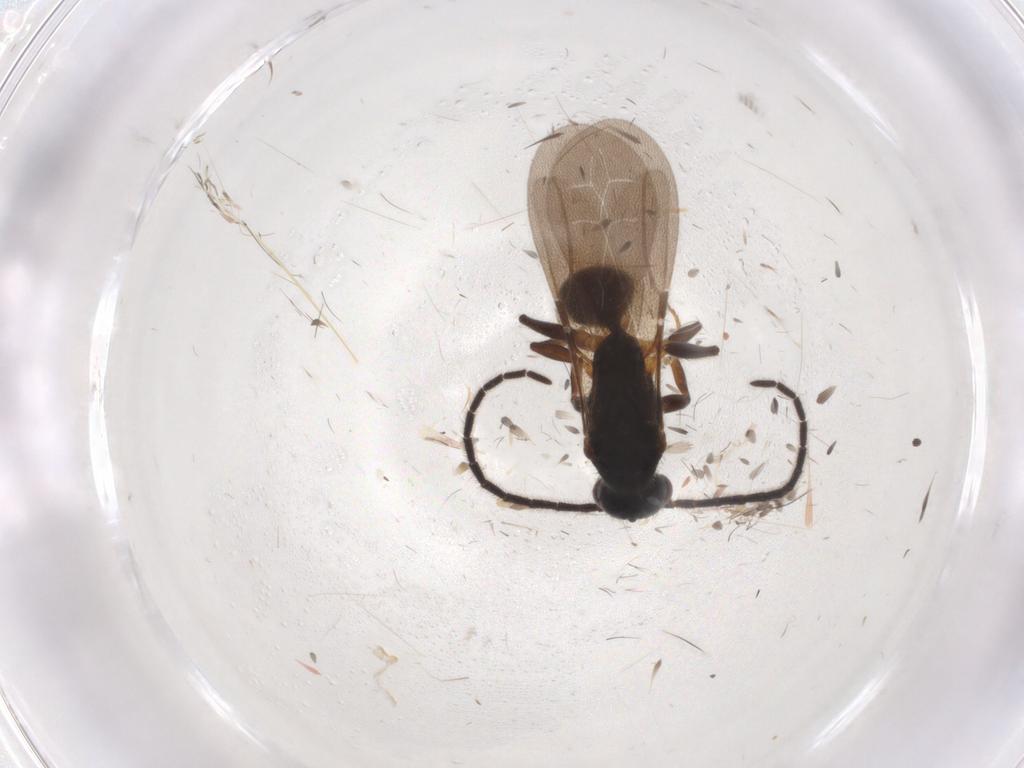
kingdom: Animalia
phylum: Arthropoda
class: Insecta
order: Hymenoptera
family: Bethylidae
